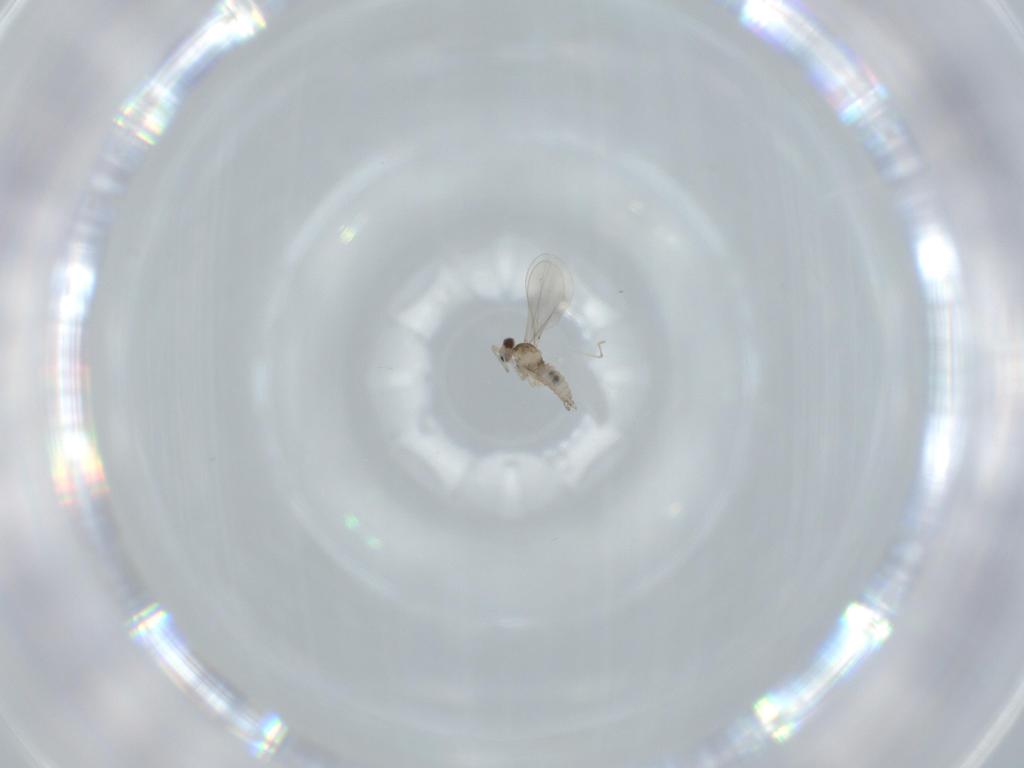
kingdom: Animalia
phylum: Arthropoda
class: Insecta
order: Diptera
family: Cecidomyiidae
